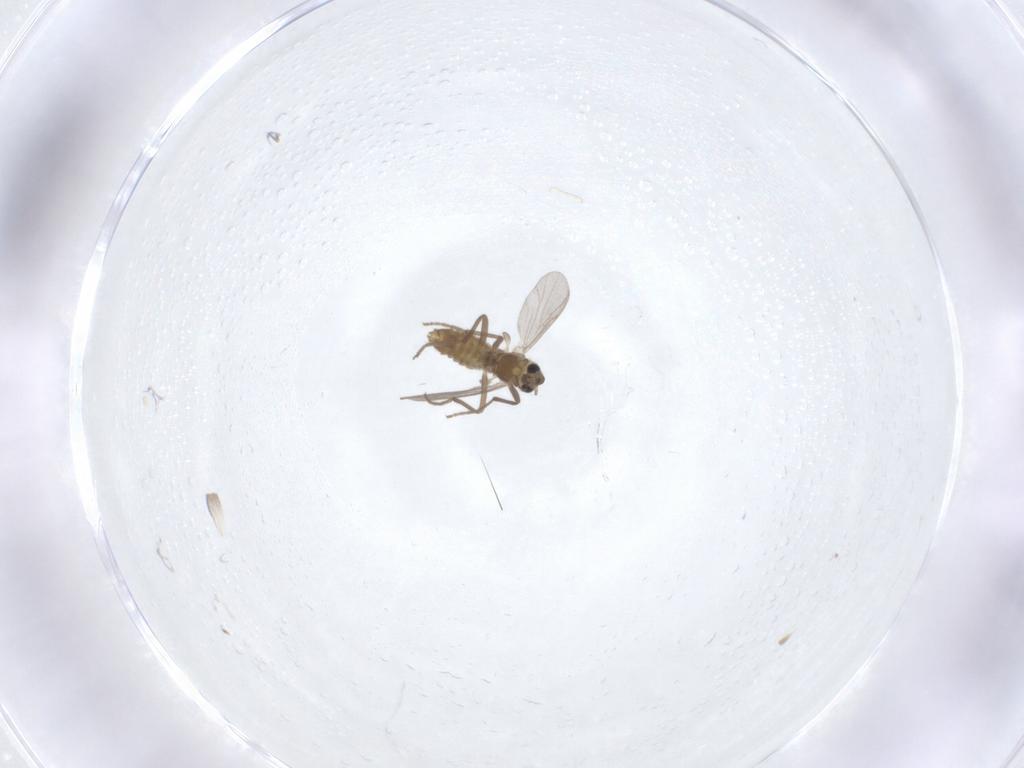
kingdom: Animalia
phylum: Arthropoda
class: Insecta
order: Diptera
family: Chironomidae
